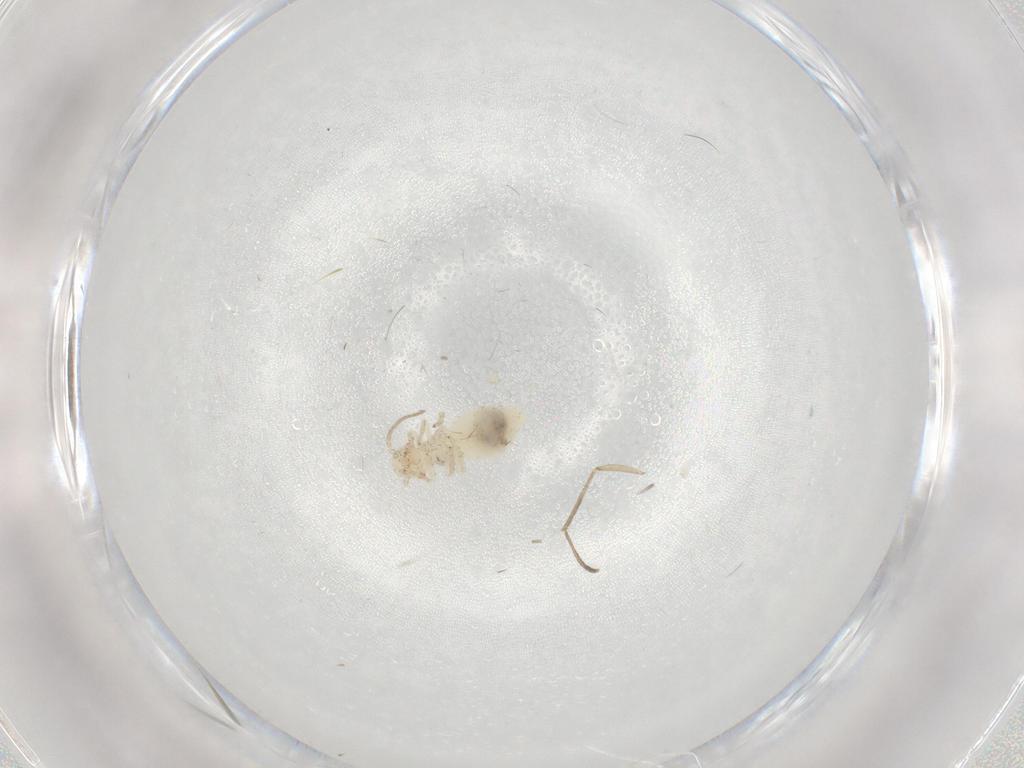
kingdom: Animalia
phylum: Arthropoda
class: Insecta
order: Psocodea
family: Caeciliusidae
